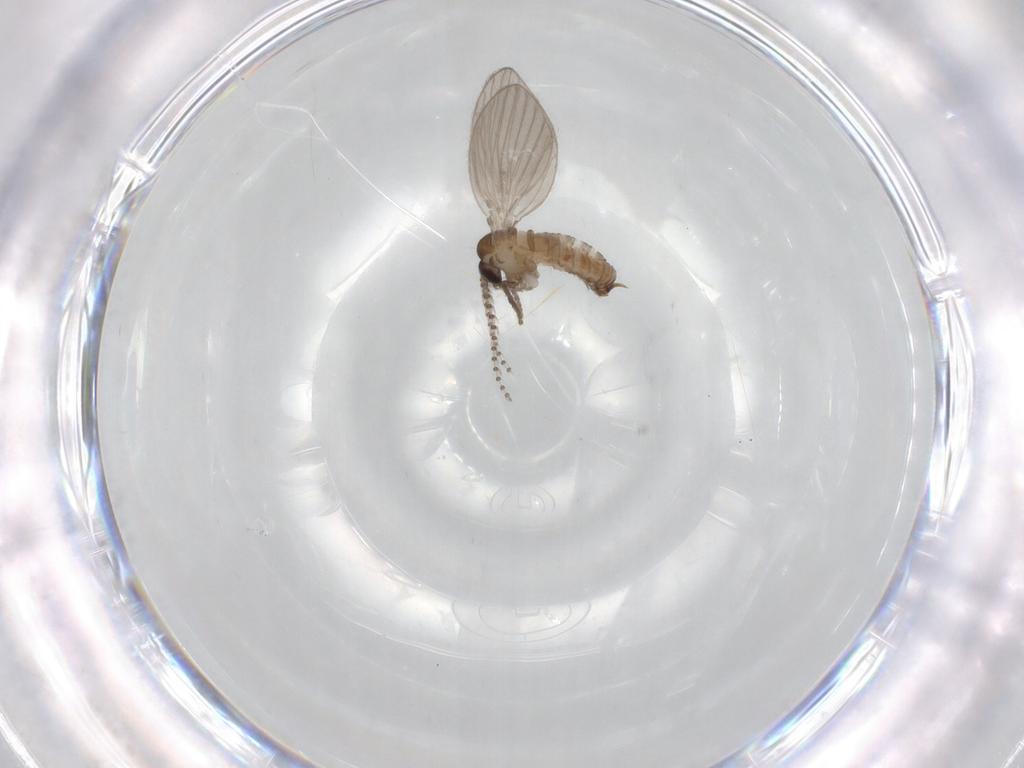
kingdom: Animalia
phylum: Arthropoda
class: Insecta
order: Diptera
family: Psychodidae
